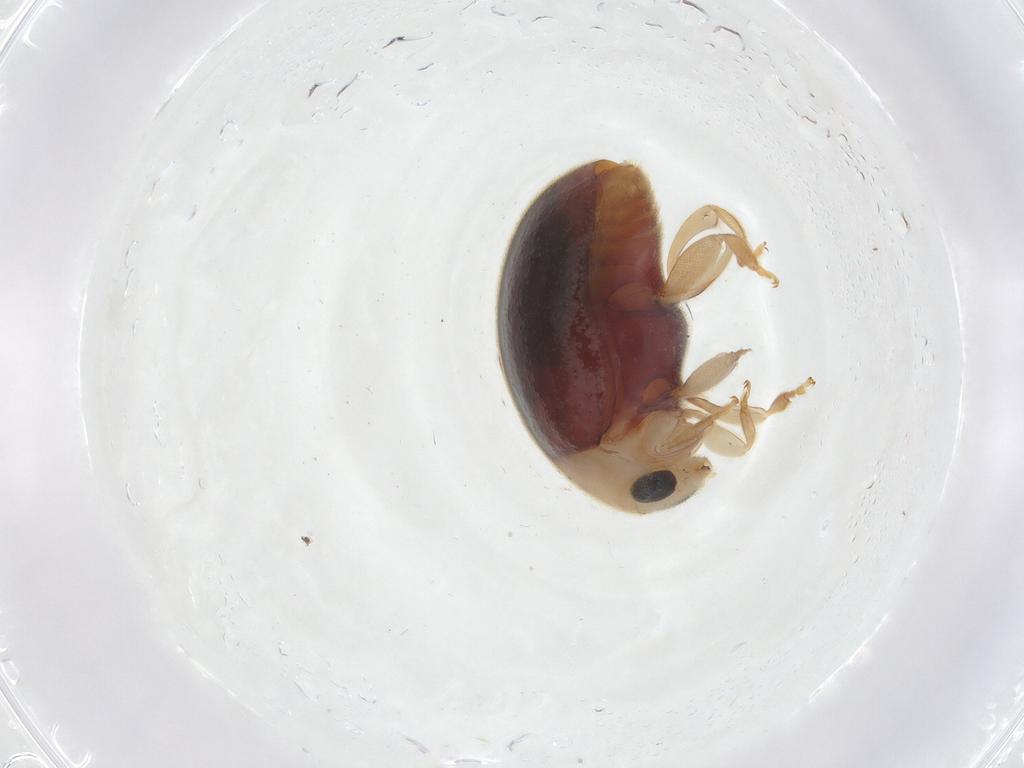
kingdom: Animalia
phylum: Arthropoda
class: Insecta
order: Coleoptera
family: Coccinellidae
